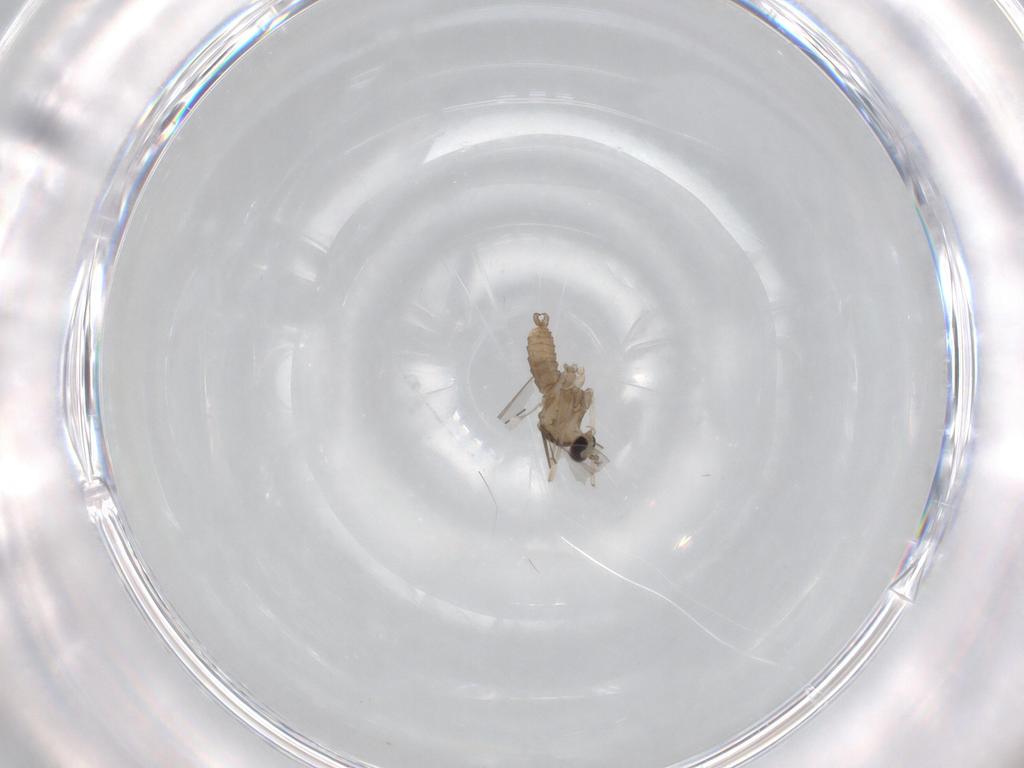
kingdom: Animalia
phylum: Arthropoda
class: Insecta
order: Diptera
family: Cecidomyiidae
